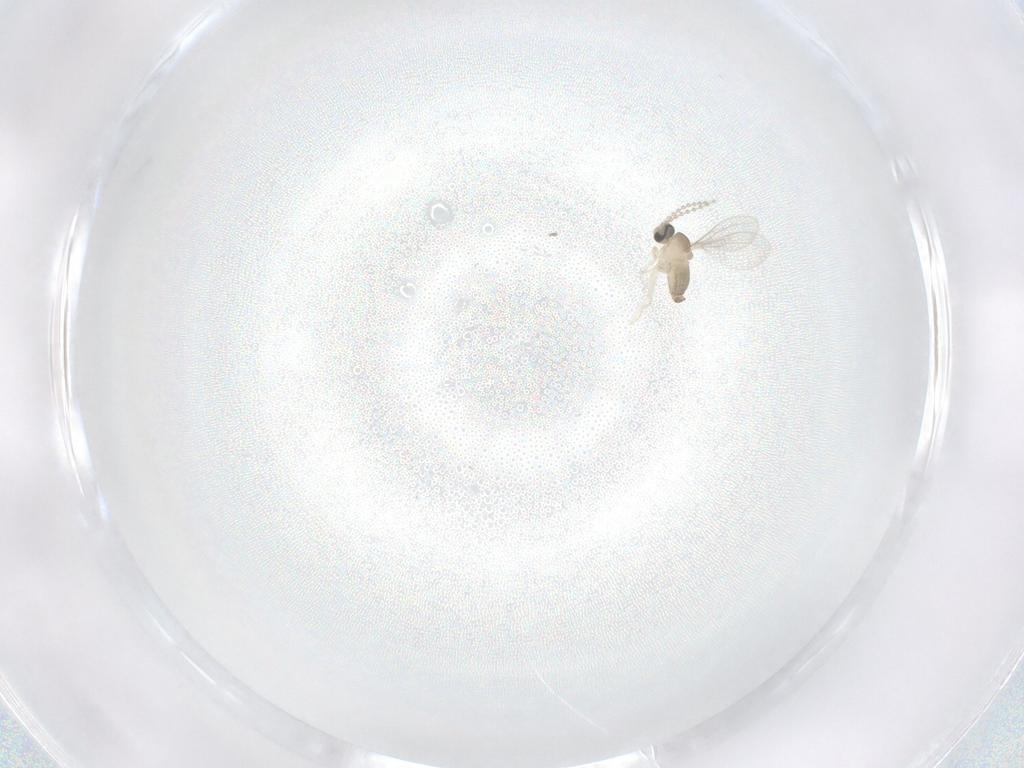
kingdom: Animalia
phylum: Arthropoda
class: Insecta
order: Diptera
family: Cecidomyiidae
